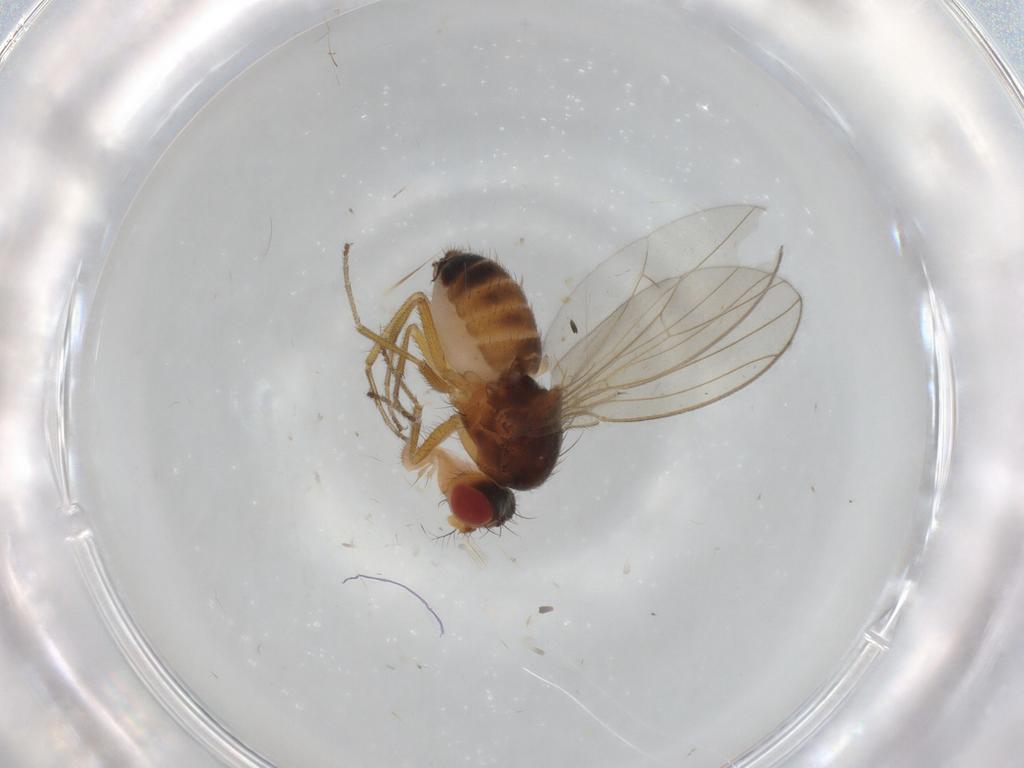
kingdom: Animalia
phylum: Arthropoda
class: Insecta
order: Diptera
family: Drosophilidae
